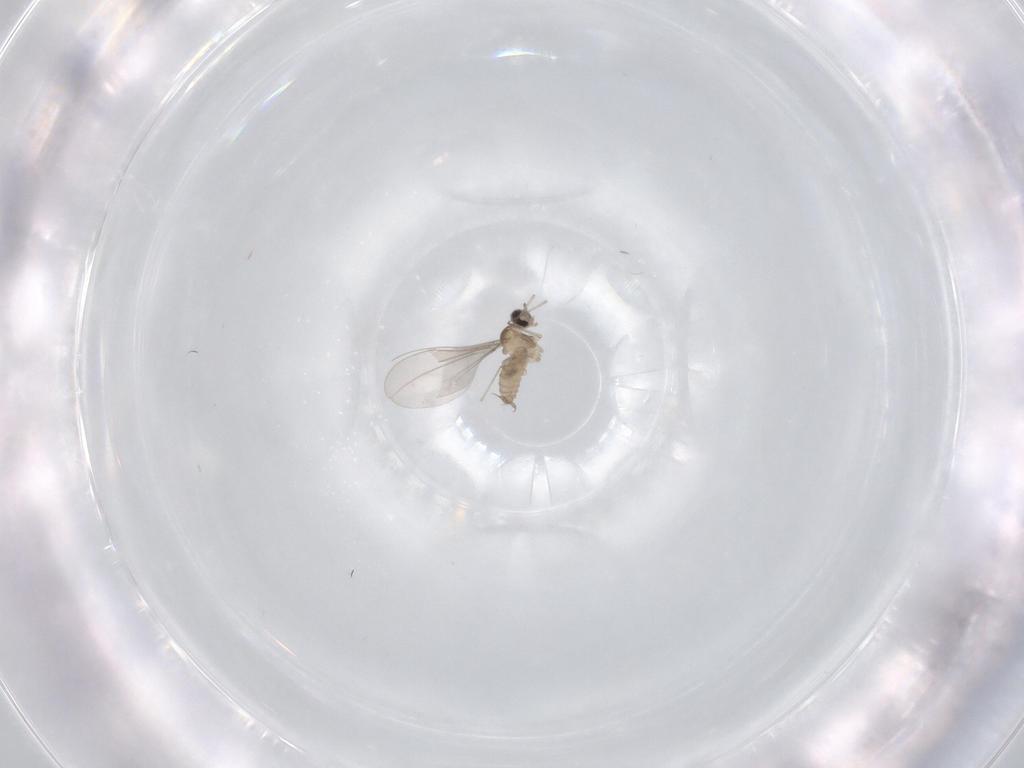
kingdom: Animalia
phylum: Arthropoda
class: Insecta
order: Diptera
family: Cecidomyiidae
